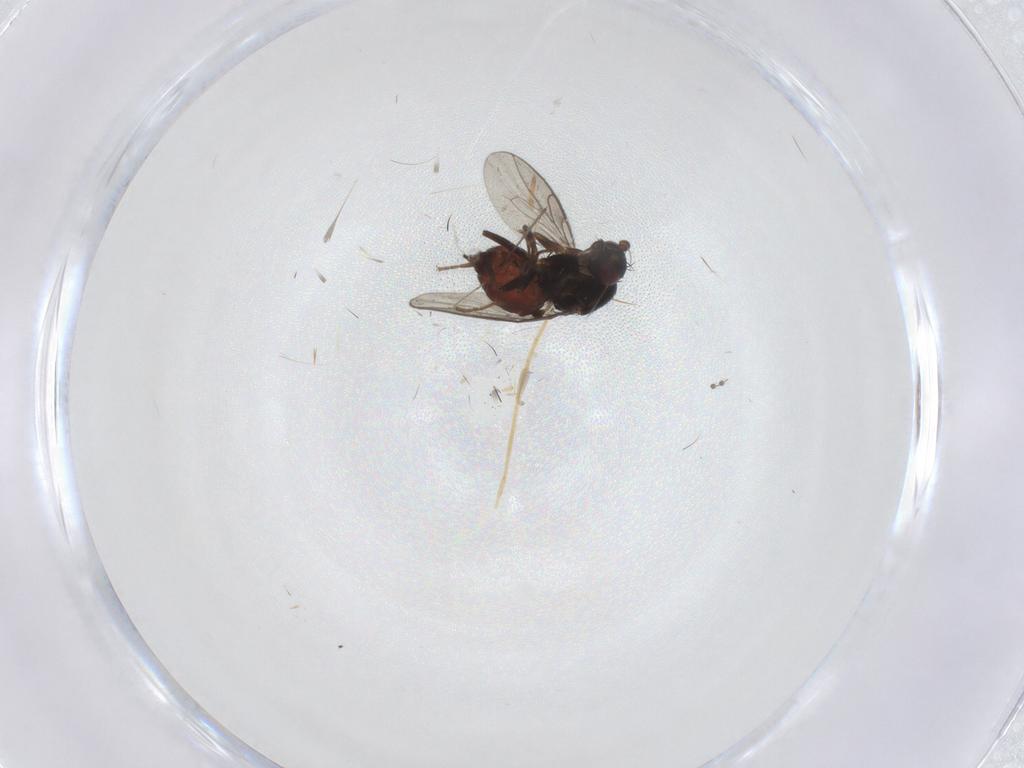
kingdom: Animalia
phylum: Arthropoda
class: Insecta
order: Diptera
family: Sphaeroceridae
